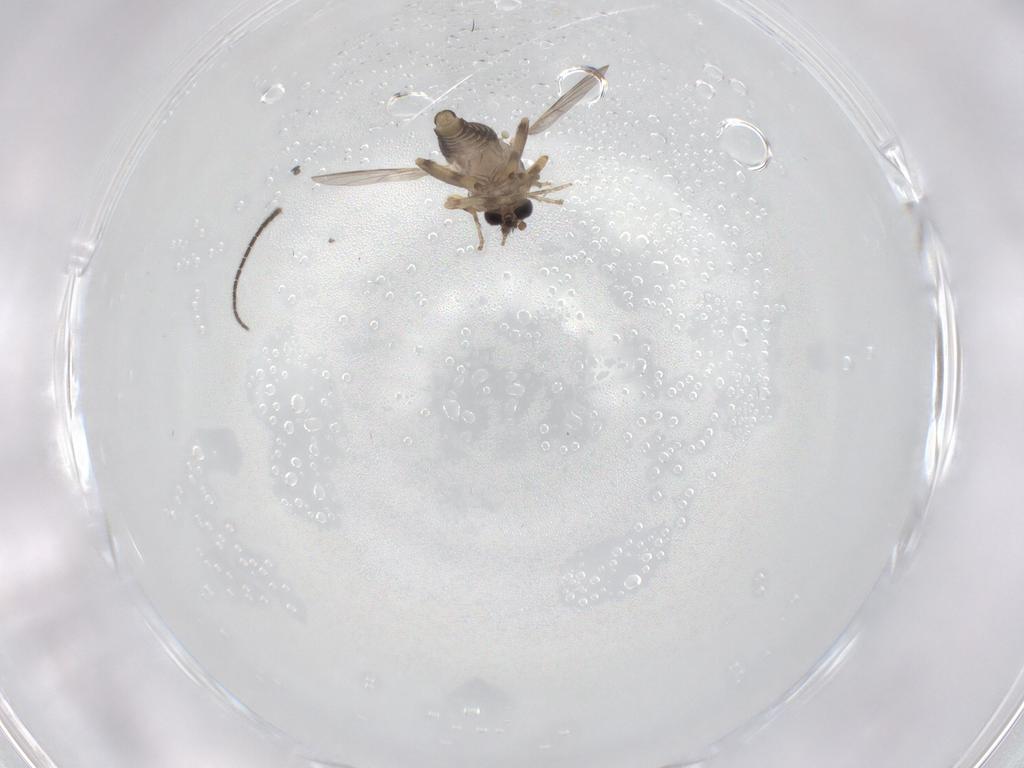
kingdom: Animalia
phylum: Arthropoda
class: Insecta
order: Diptera
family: Ceratopogonidae
